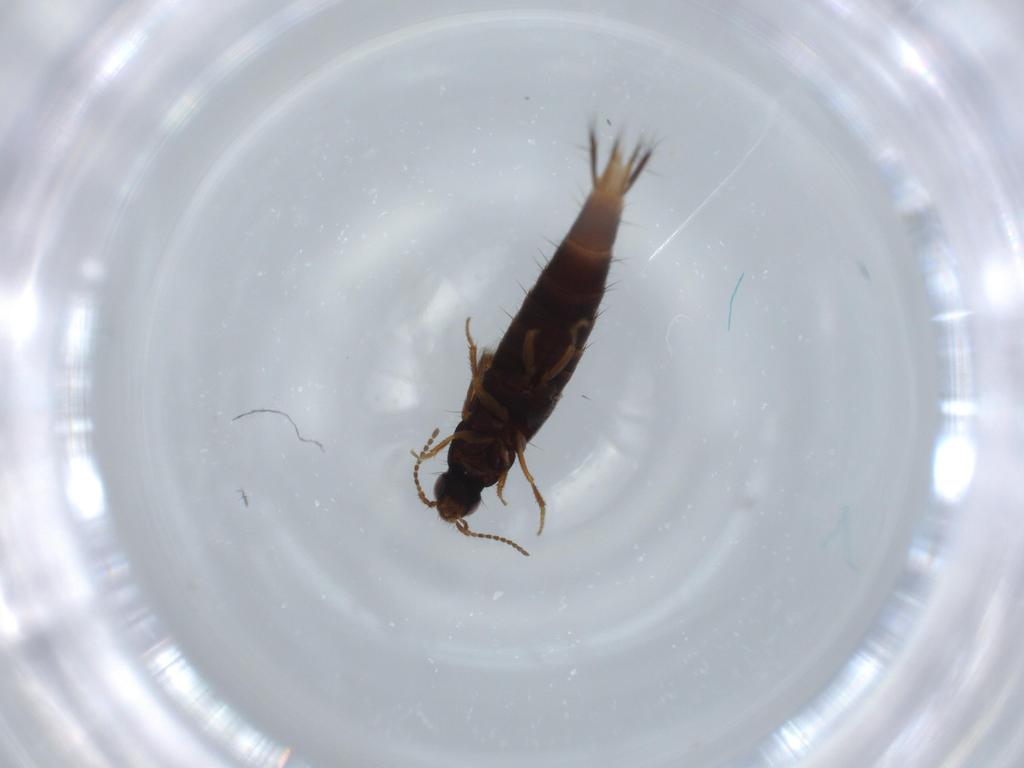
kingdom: Animalia
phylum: Arthropoda
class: Insecta
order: Coleoptera
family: Staphylinidae
